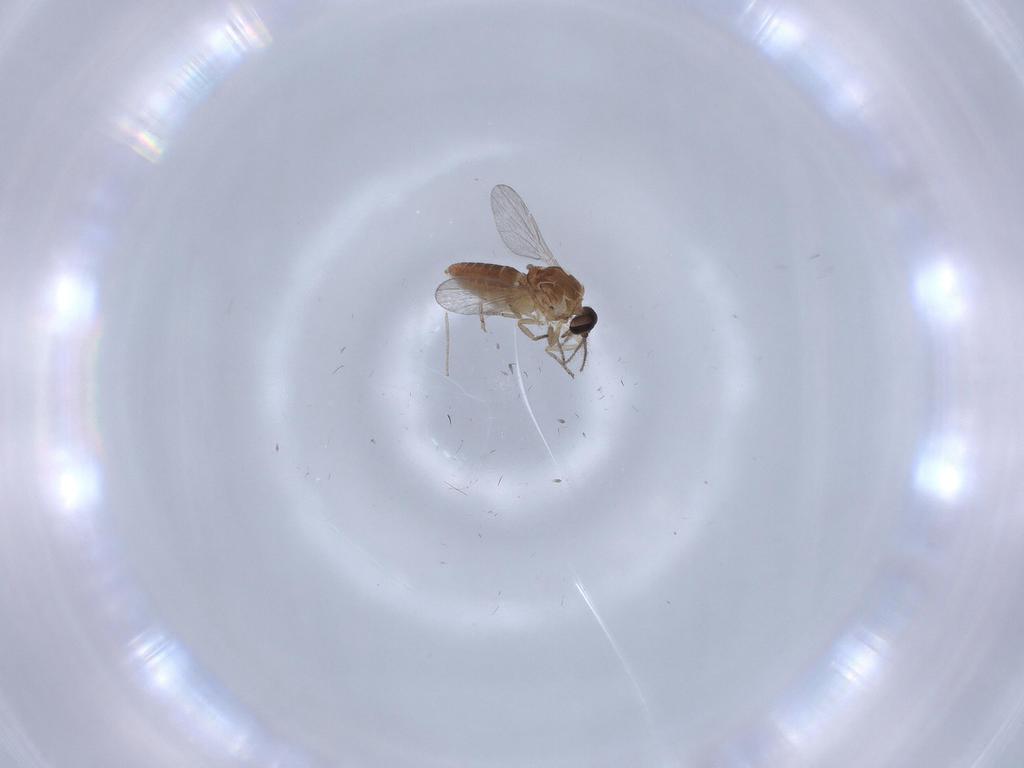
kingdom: Animalia
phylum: Arthropoda
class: Insecta
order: Diptera
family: Ceratopogonidae
